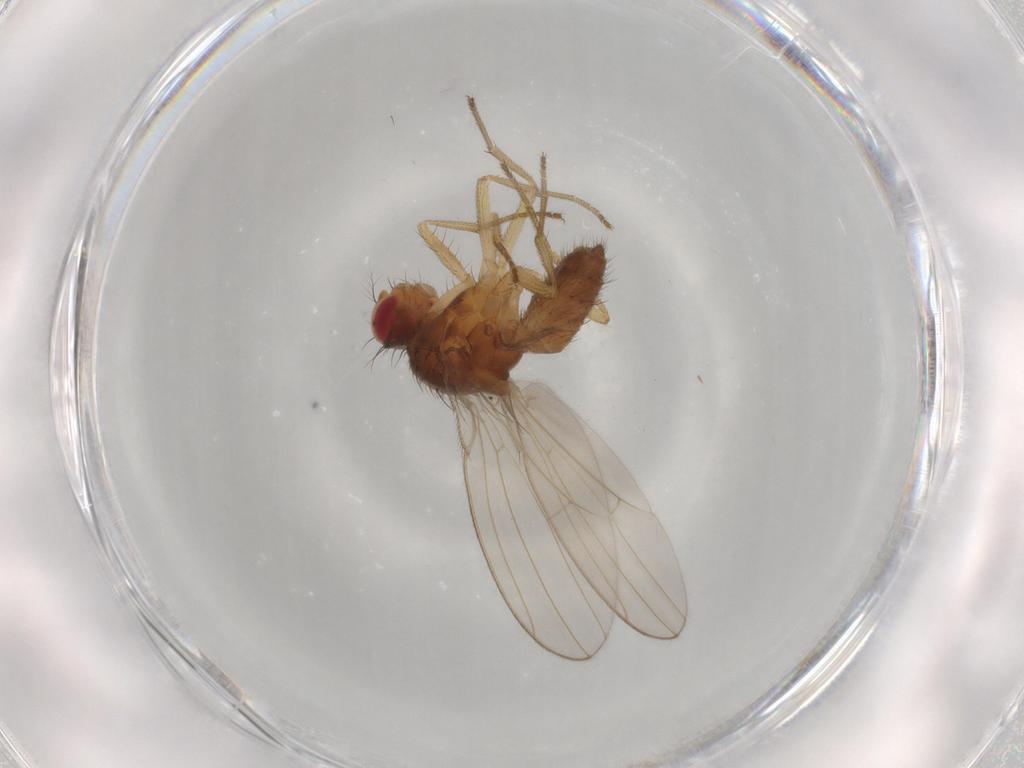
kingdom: Animalia
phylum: Arthropoda
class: Insecta
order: Diptera
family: Drosophilidae
